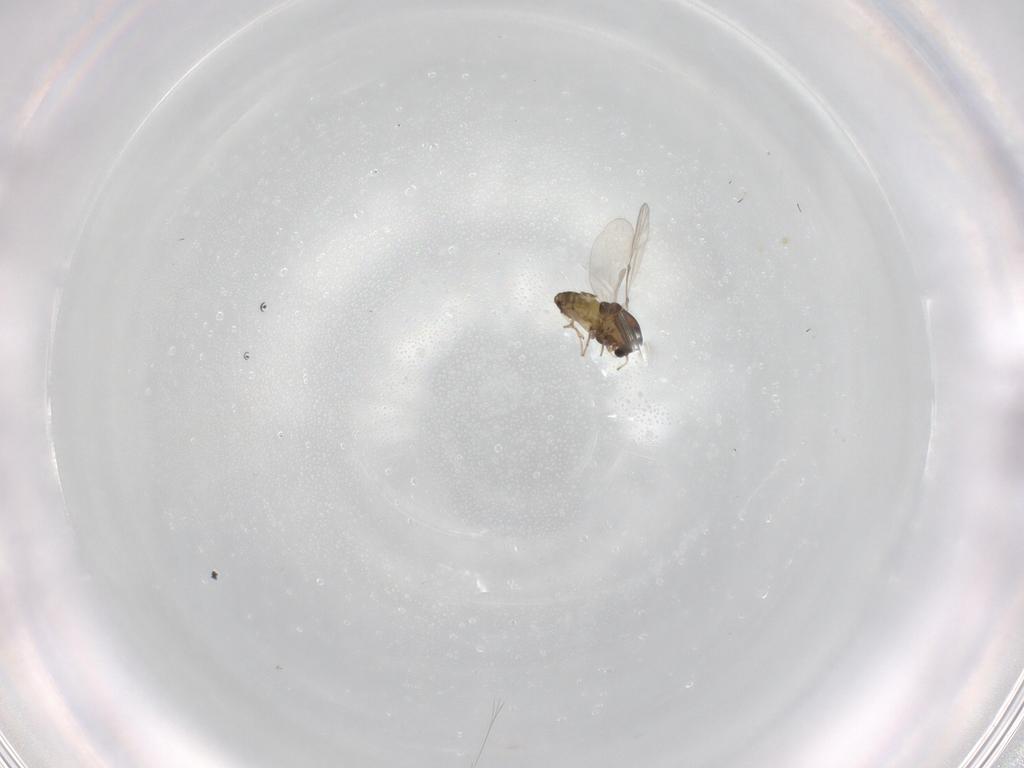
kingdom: Animalia
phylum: Arthropoda
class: Insecta
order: Diptera
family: Chironomidae
